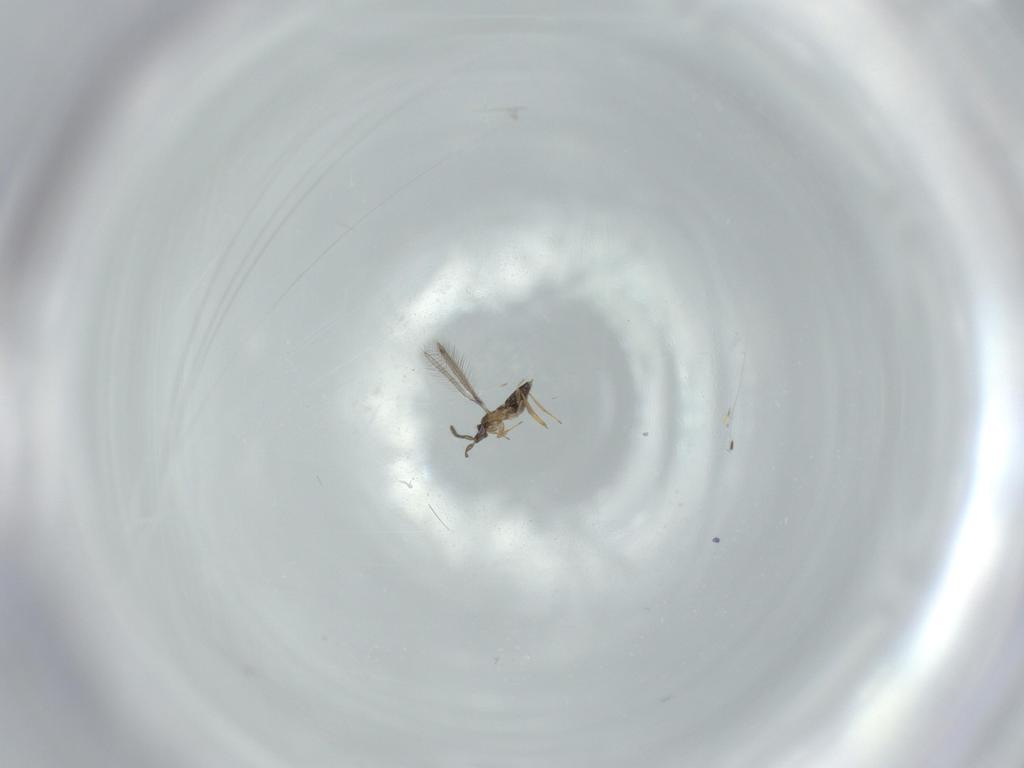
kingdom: Animalia
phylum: Arthropoda
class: Insecta
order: Hymenoptera
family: Mymaridae
